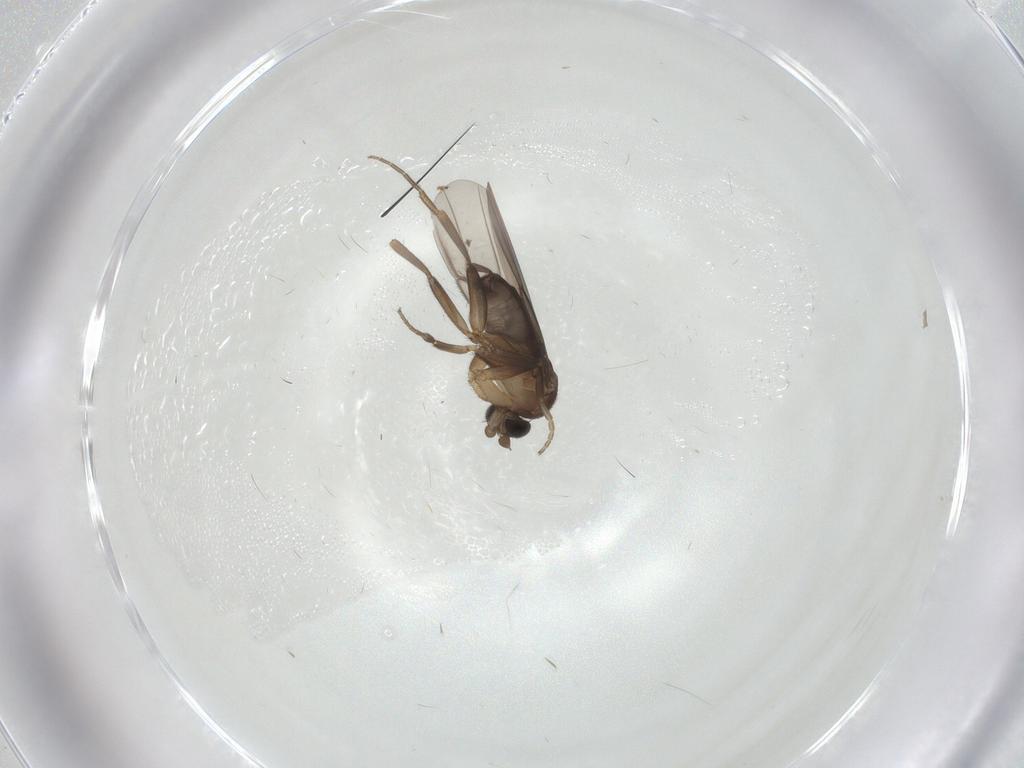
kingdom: Animalia
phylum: Arthropoda
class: Insecta
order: Diptera
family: Phoridae
